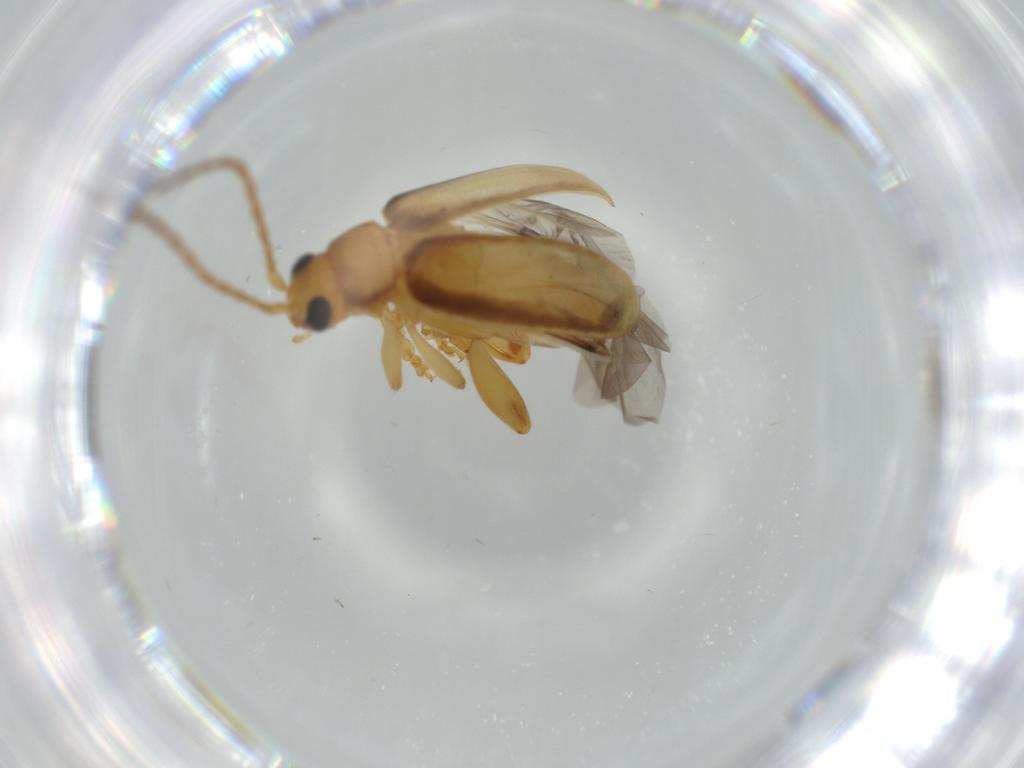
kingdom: Animalia
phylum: Arthropoda
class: Insecta
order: Coleoptera
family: Chrysomelidae
